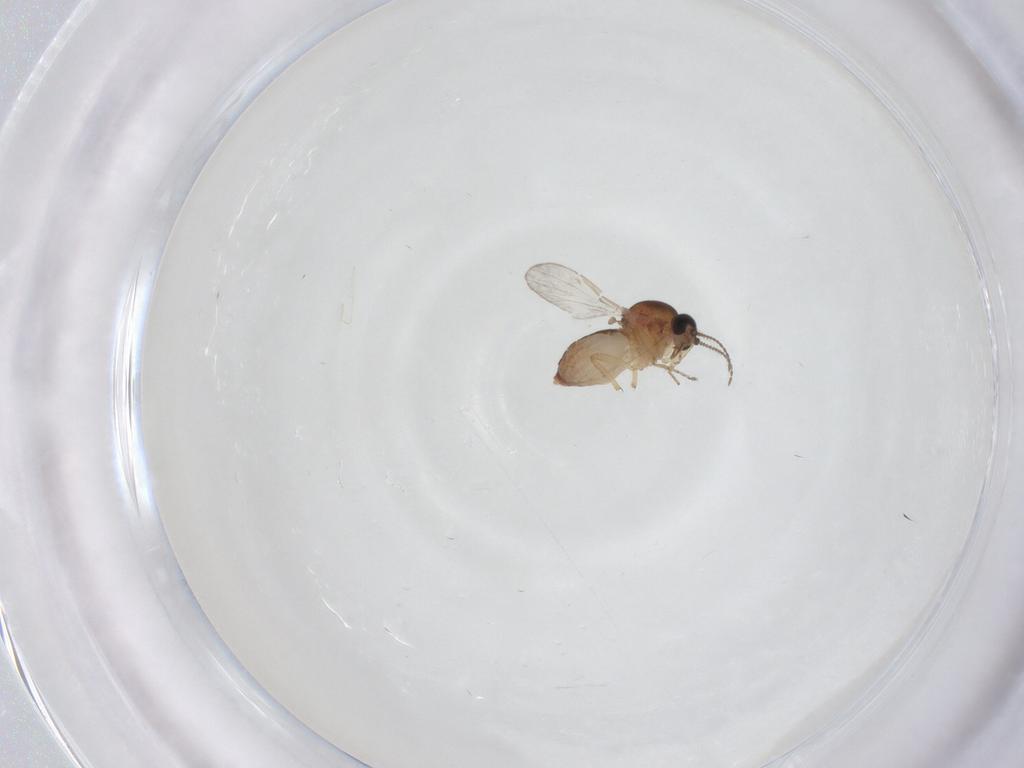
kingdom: Animalia
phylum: Arthropoda
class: Insecta
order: Diptera
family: Ceratopogonidae
